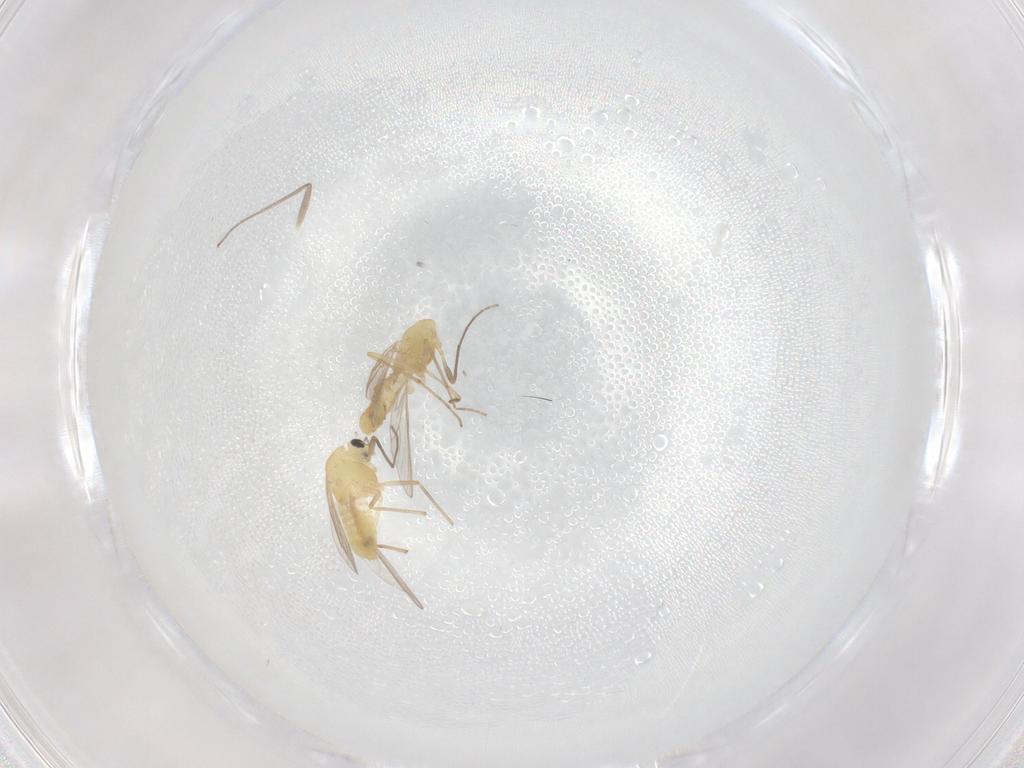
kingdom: Animalia
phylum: Arthropoda
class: Insecta
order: Diptera
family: Chironomidae
